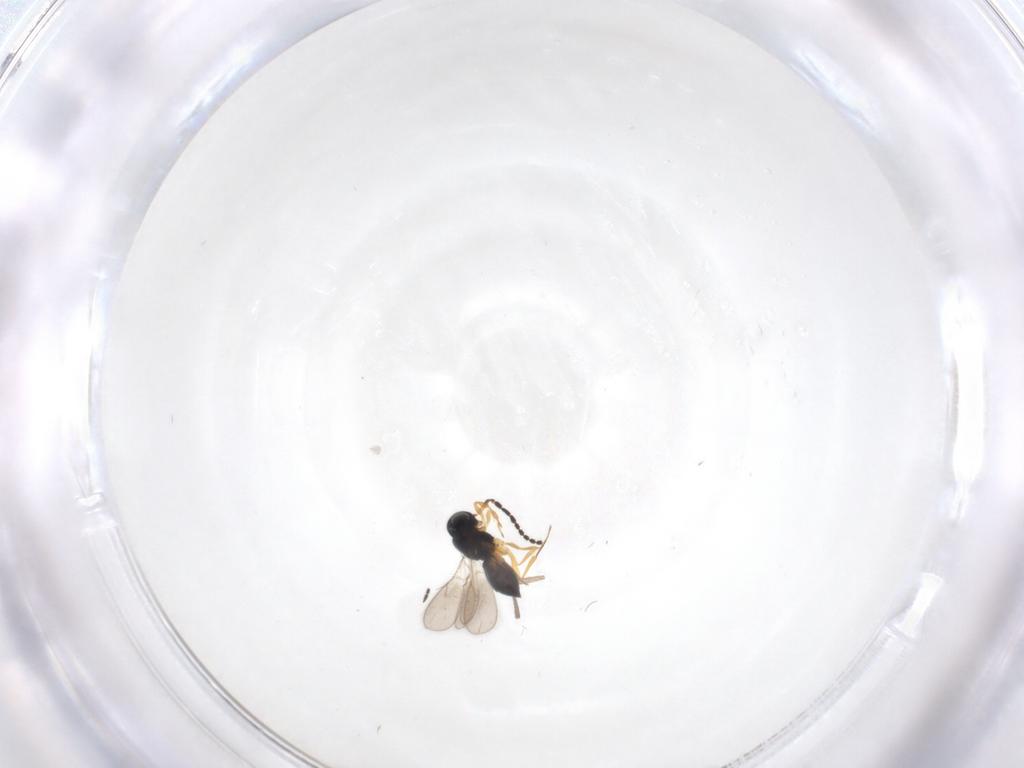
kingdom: Animalia
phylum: Arthropoda
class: Insecta
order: Hymenoptera
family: Scelionidae
